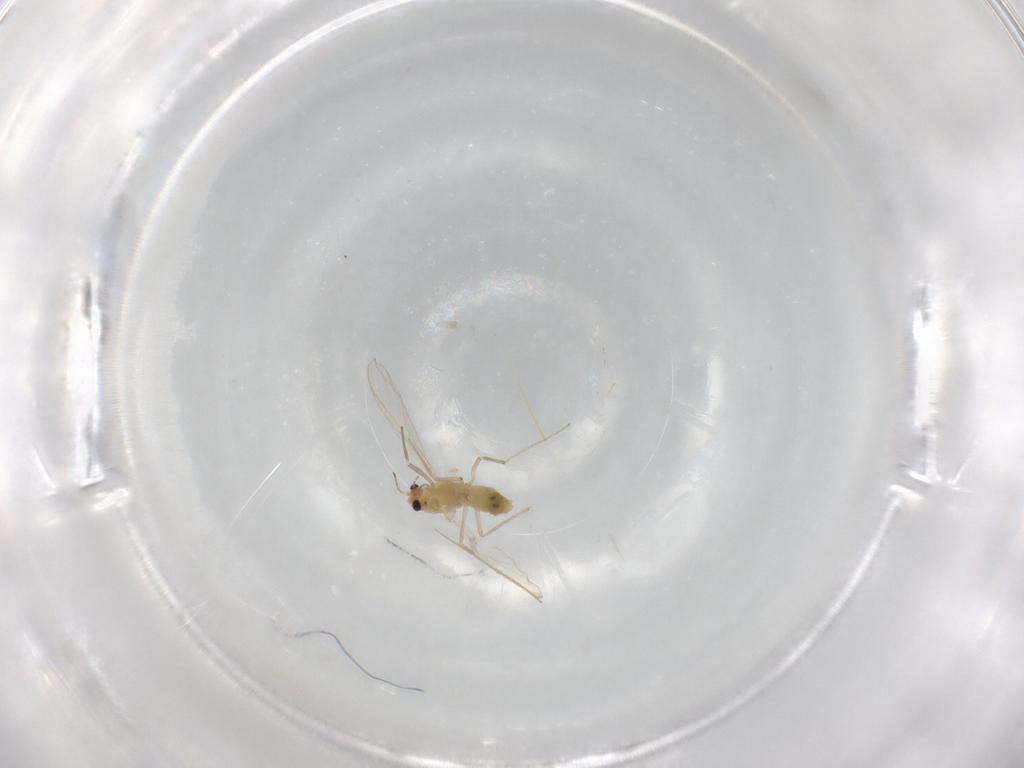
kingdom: Animalia
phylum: Arthropoda
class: Insecta
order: Diptera
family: Chironomidae
